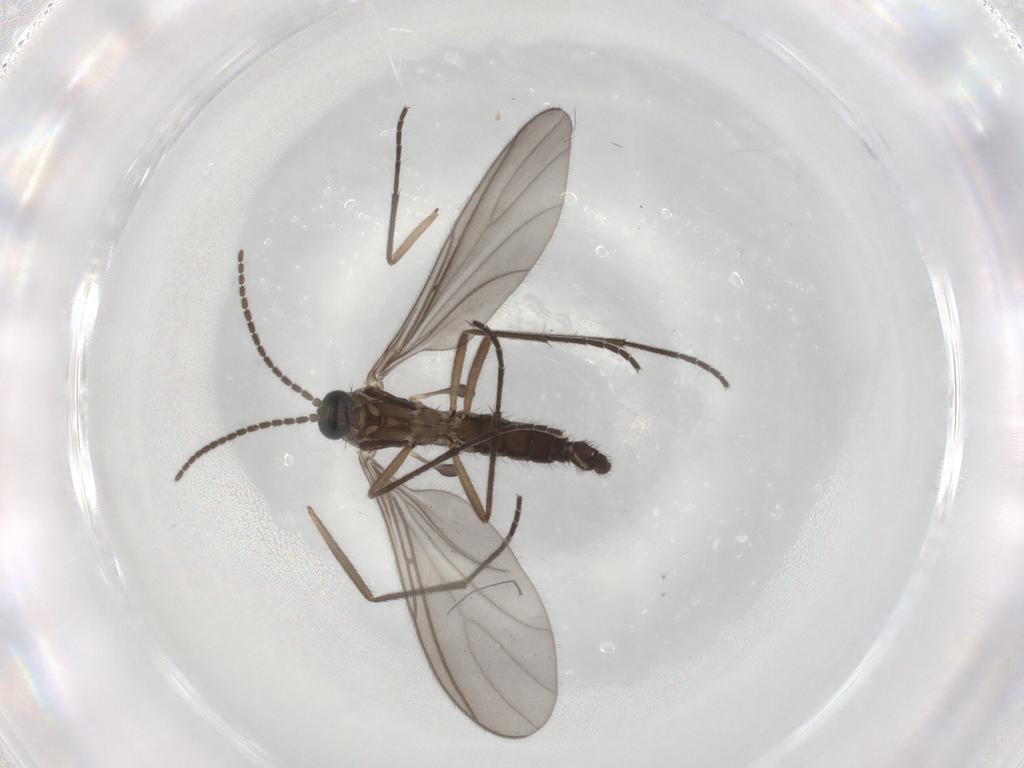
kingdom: Animalia
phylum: Arthropoda
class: Insecta
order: Diptera
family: Sciaridae
